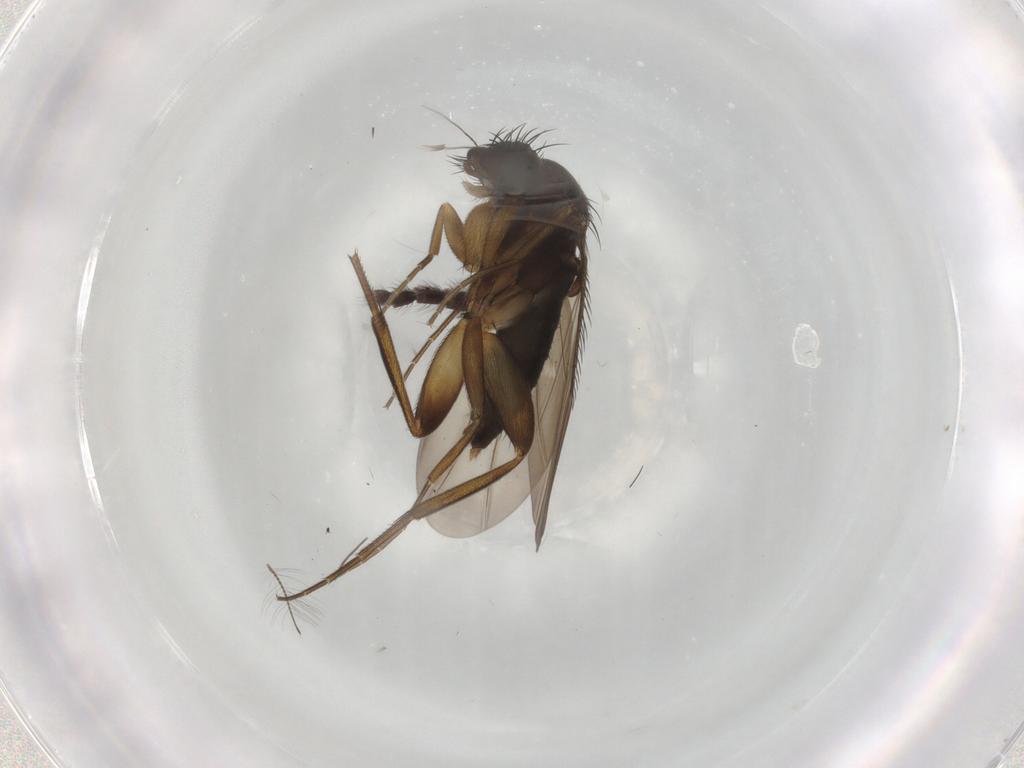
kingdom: Animalia
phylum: Arthropoda
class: Insecta
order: Diptera
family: Phoridae
